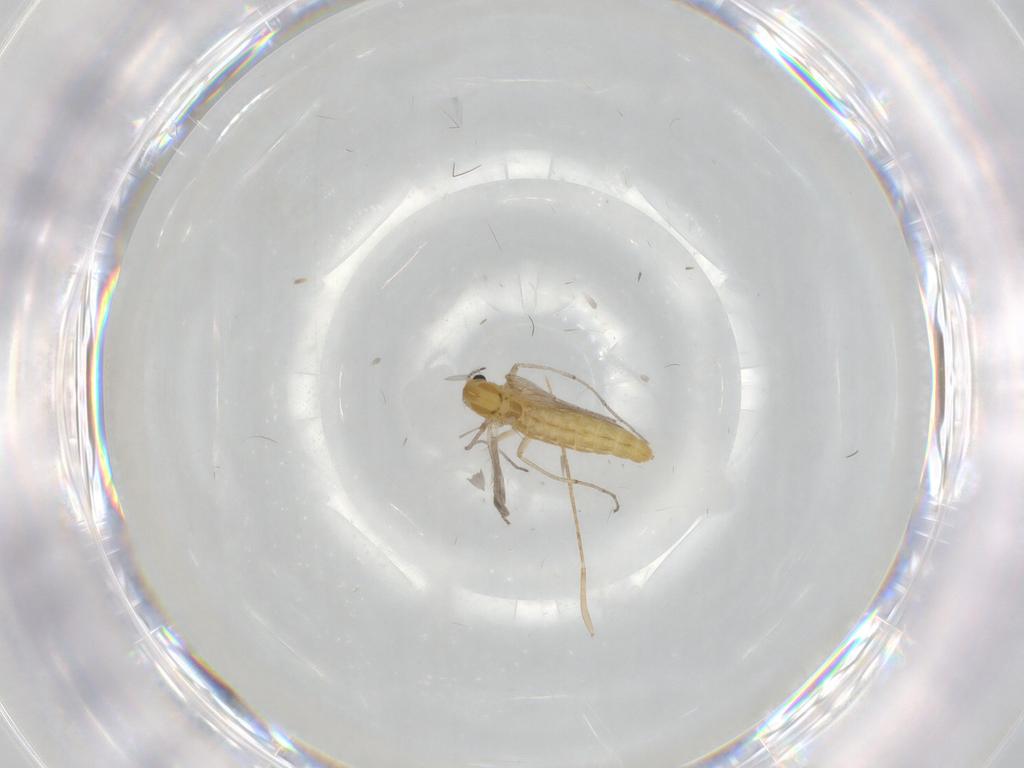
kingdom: Animalia
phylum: Arthropoda
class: Insecta
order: Diptera
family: Chironomidae
